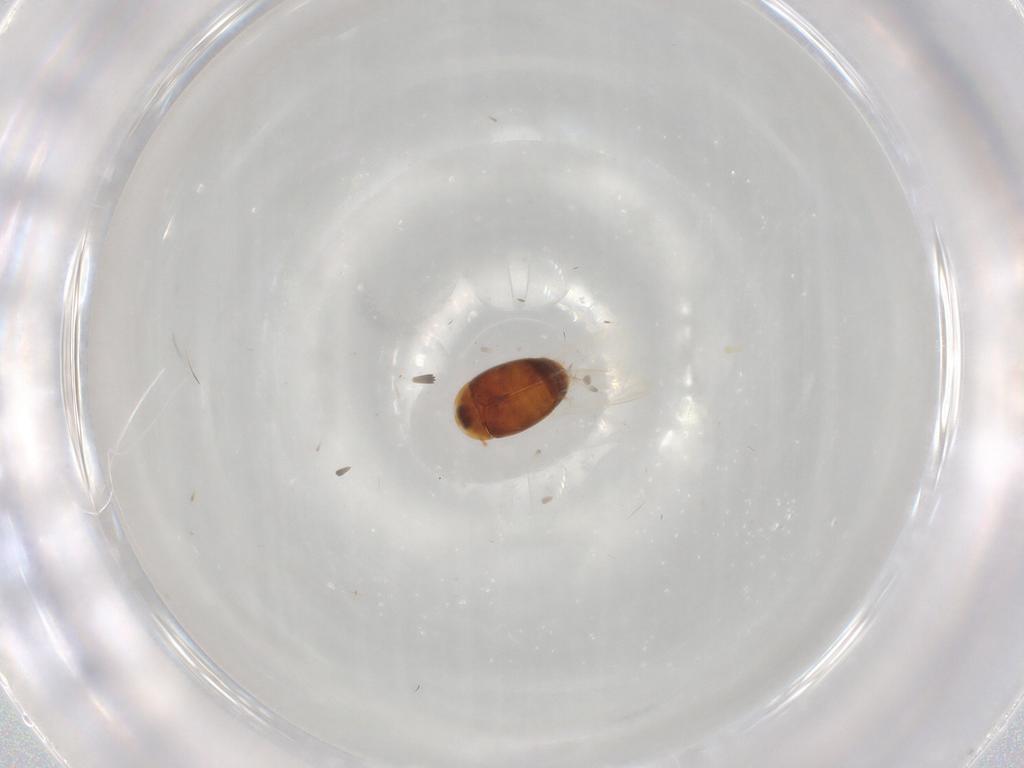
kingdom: Animalia
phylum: Arthropoda
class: Insecta
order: Coleoptera
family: Corylophidae
